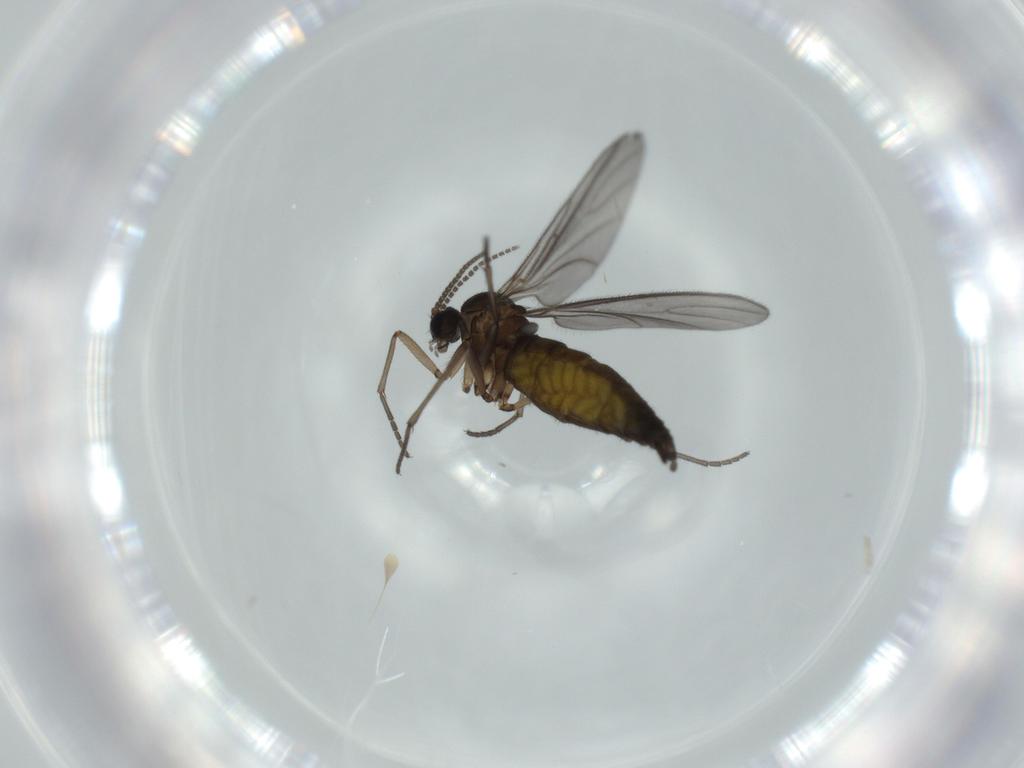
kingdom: Animalia
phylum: Arthropoda
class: Insecta
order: Diptera
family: Sciaridae
